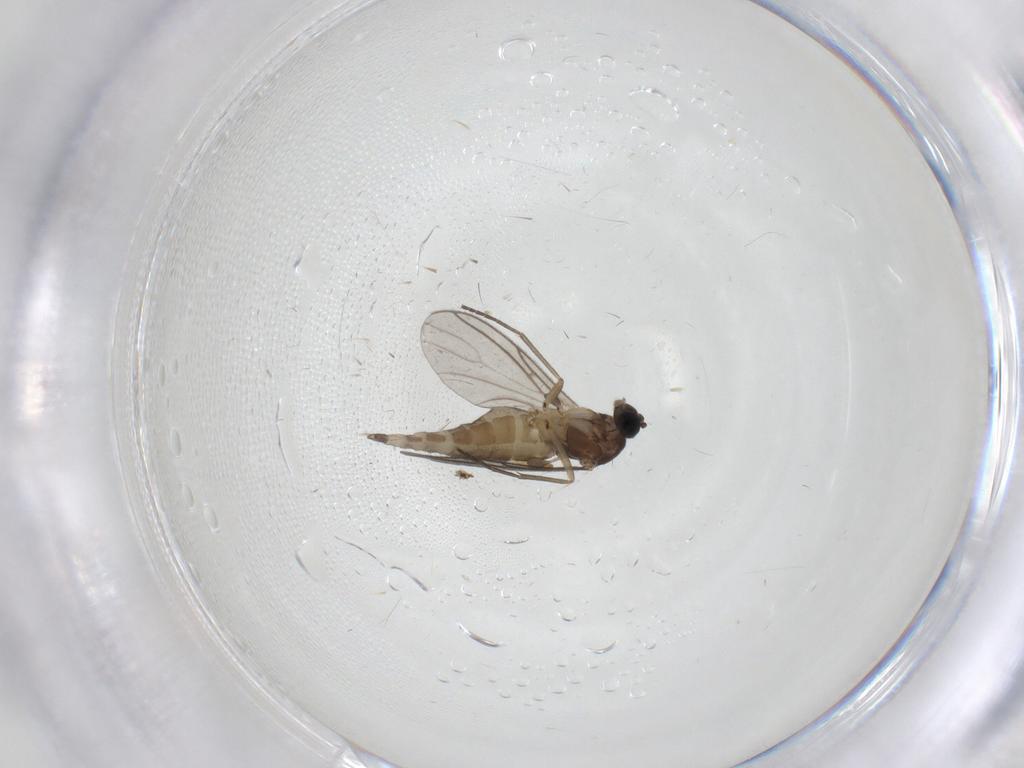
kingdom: Animalia
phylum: Arthropoda
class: Insecta
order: Diptera
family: Sciaridae
